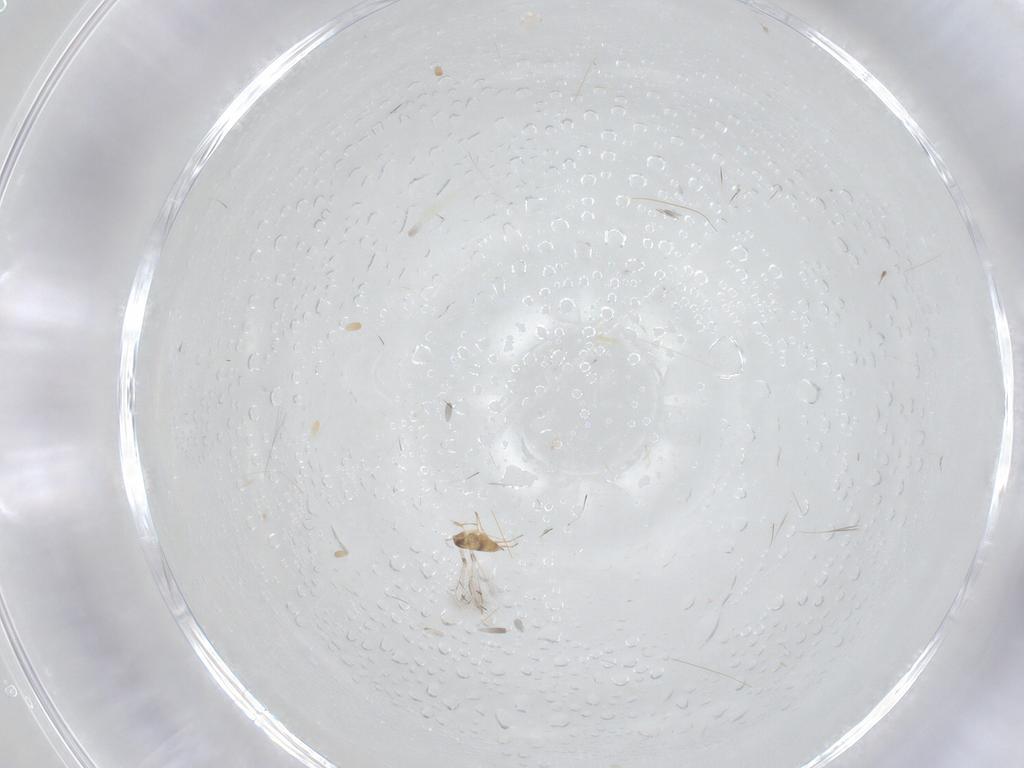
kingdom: Animalia
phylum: Arthropoda
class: Insecta
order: Hymenoptera
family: Mymaridae
